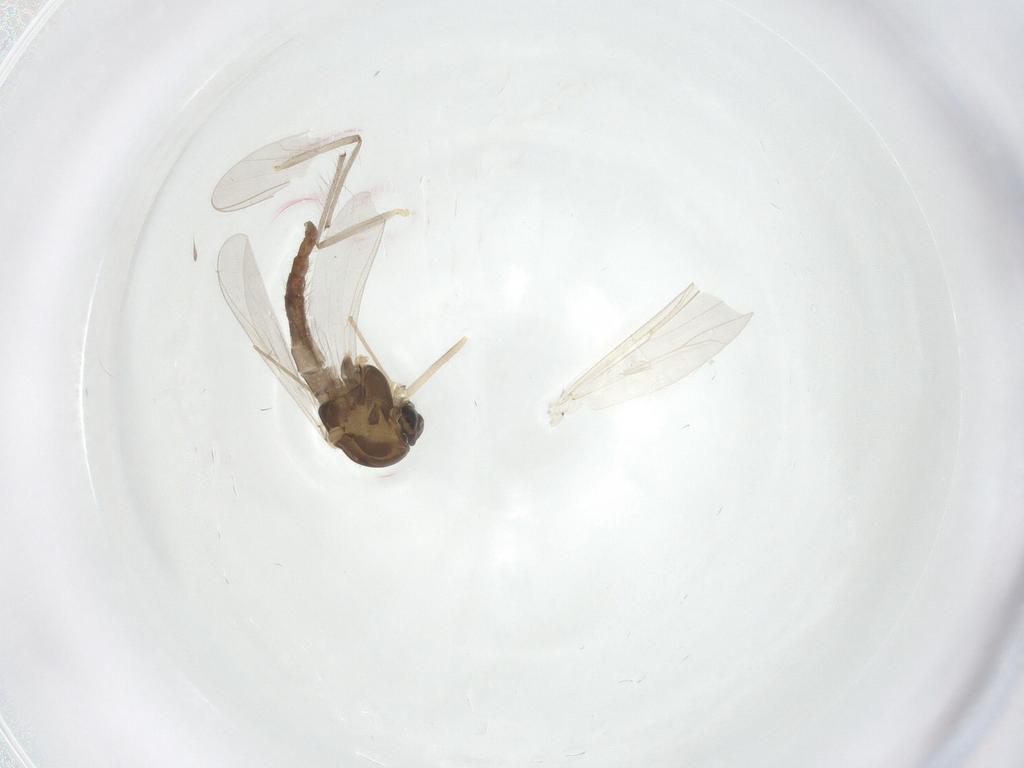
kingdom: Animalia
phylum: Arthropoda
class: Insecta
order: Diptera
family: Chironomidae
